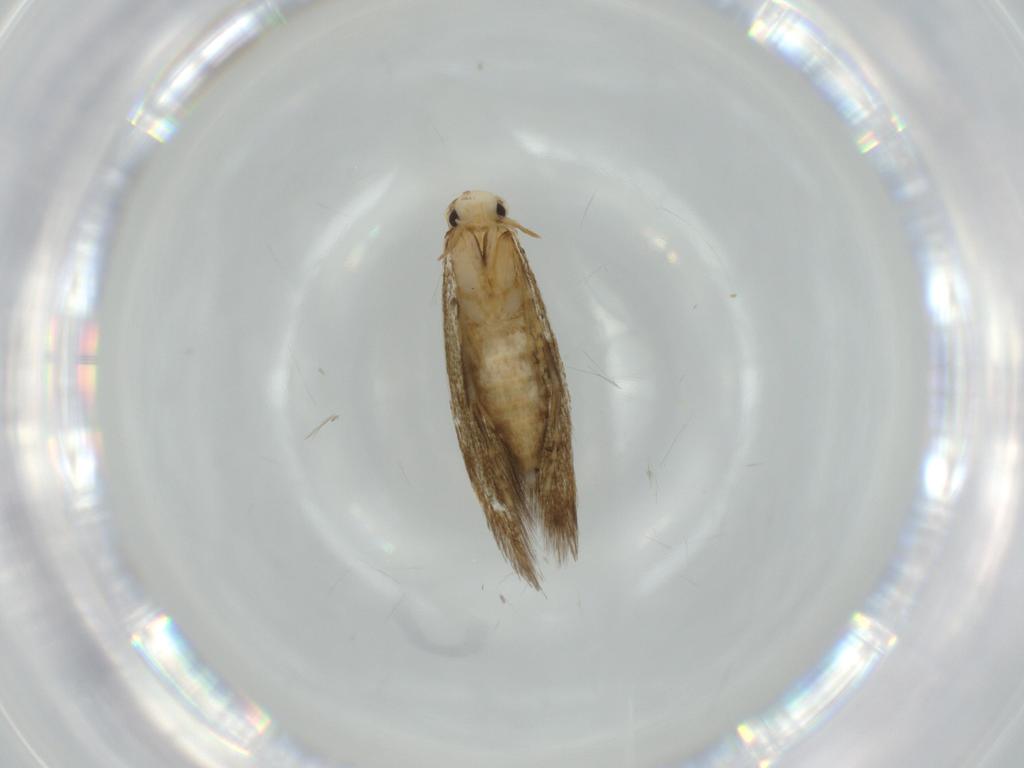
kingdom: Animalia
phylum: Arthropoda
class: Insecta
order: Lepidoptera
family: Tineidae
